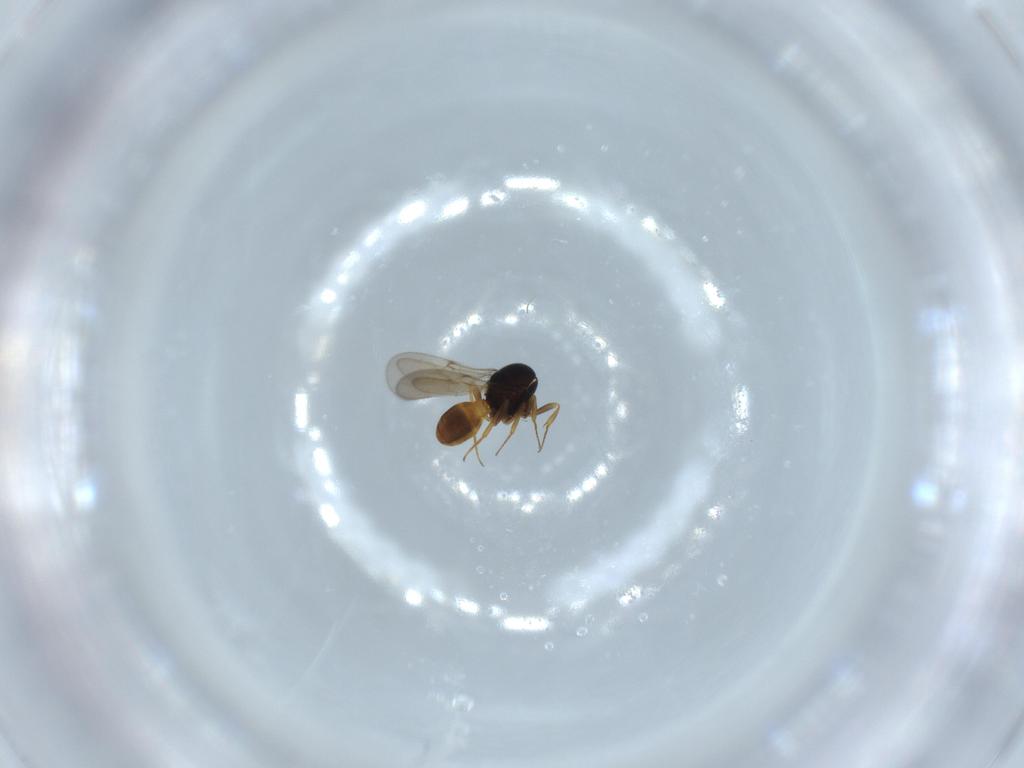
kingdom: Animalia
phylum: Arthropoda
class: Insecta
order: Hymenoptera
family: Scelionidae
